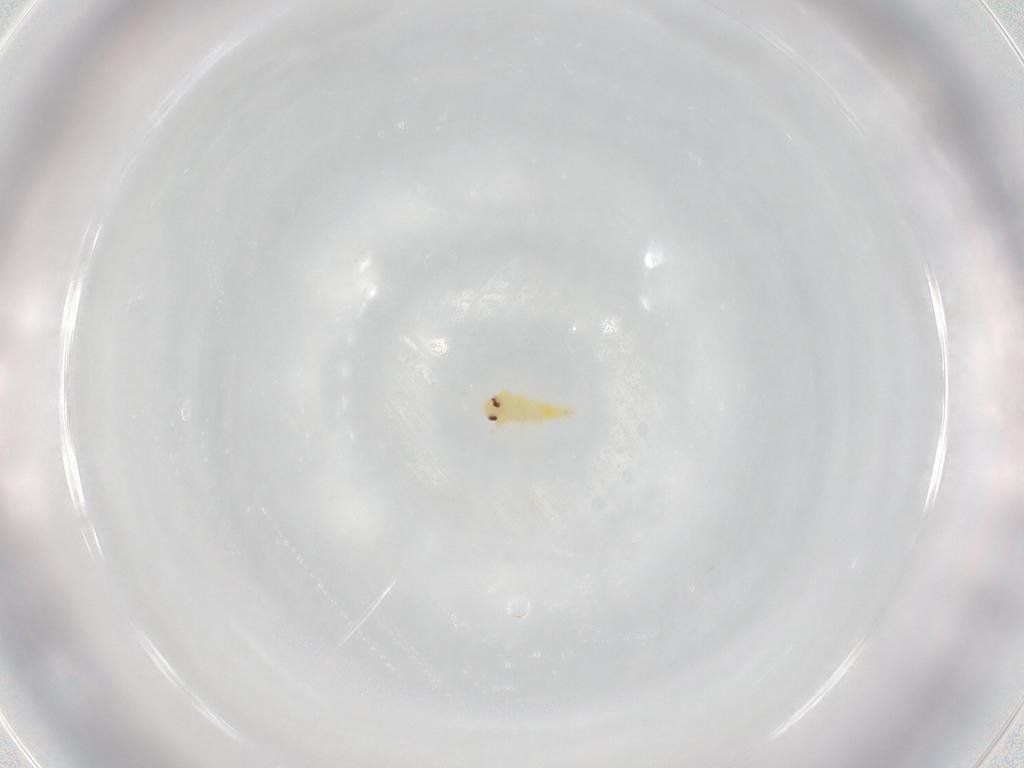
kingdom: Animalia
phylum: Arthropoda
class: Insecta
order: Hemiptera
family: Aleyrodidae
